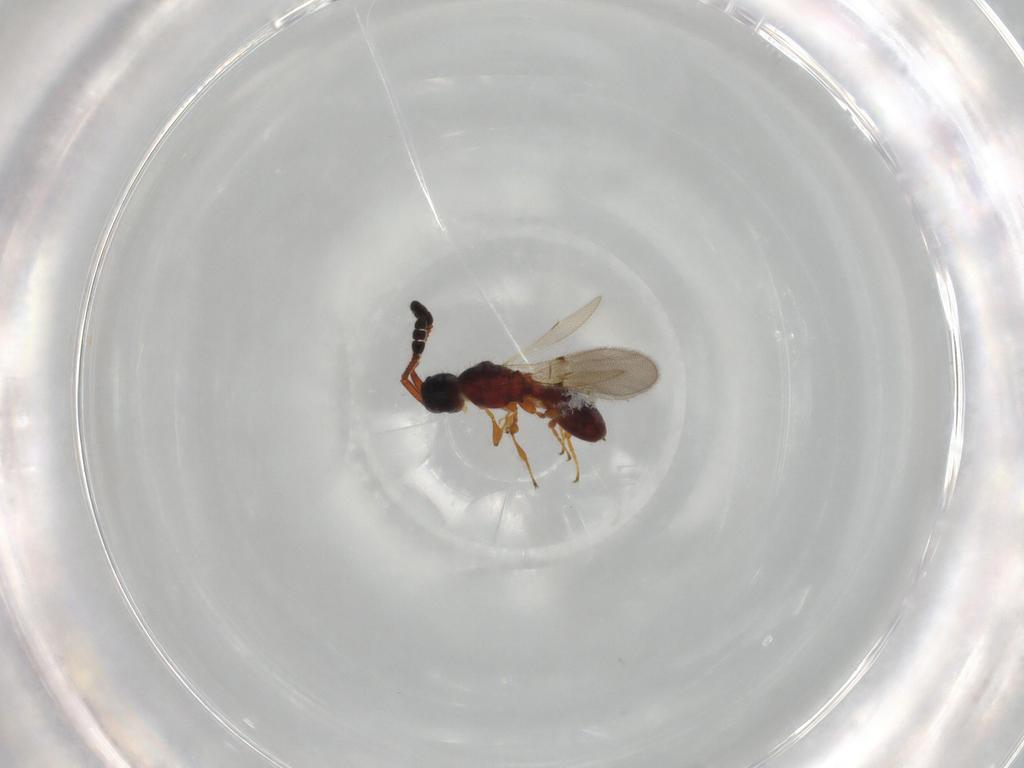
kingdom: Animalia
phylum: Arthropoda
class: Insecta
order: Hymenoptera
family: Diapriidae
